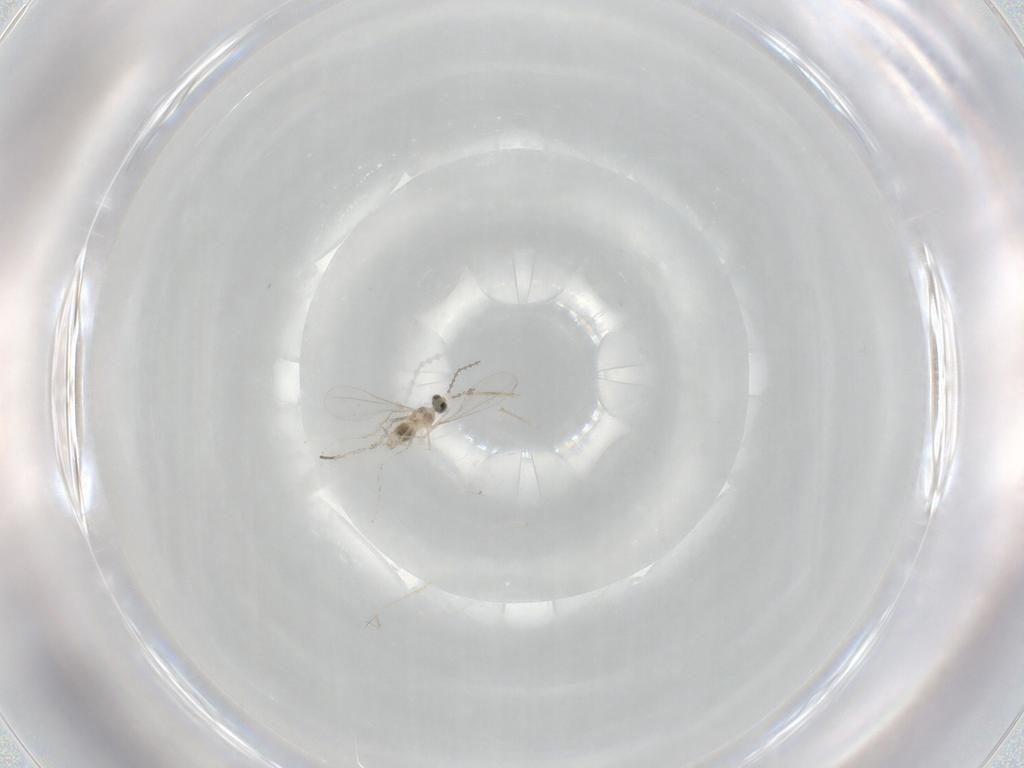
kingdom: Animalia
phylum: Arthropoda
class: Insecta
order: Diptera
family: Cecidomyiidae
